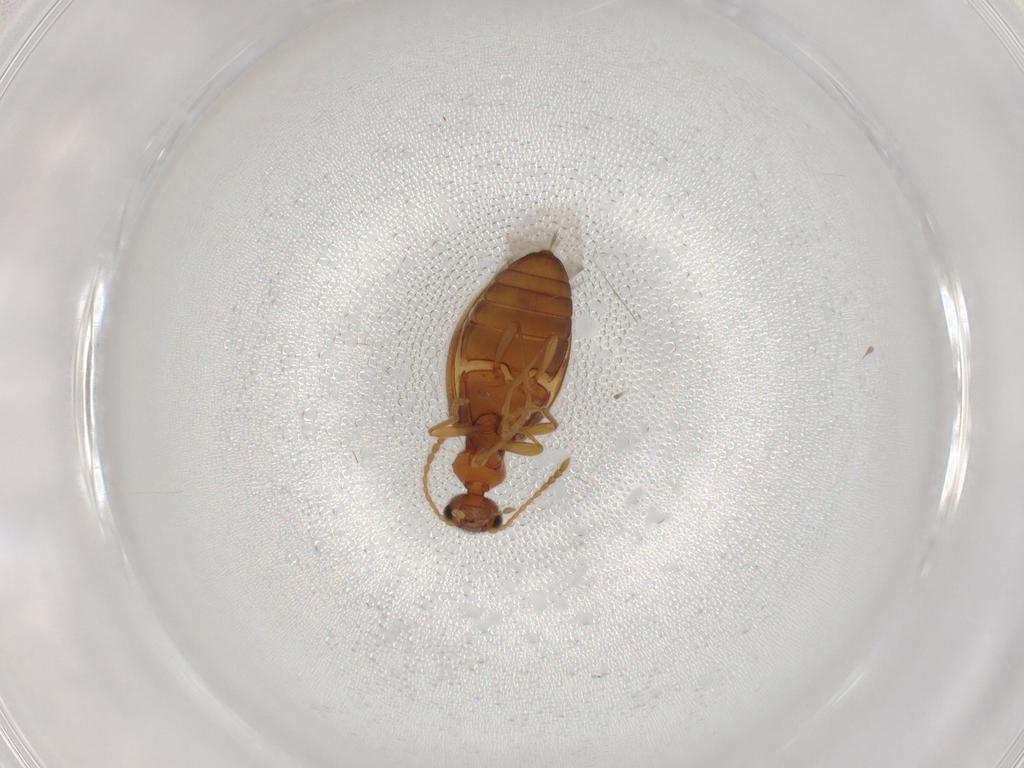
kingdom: Animalia
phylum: Arthropoda
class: Insecta
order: Coleoptera
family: Anthicidae
